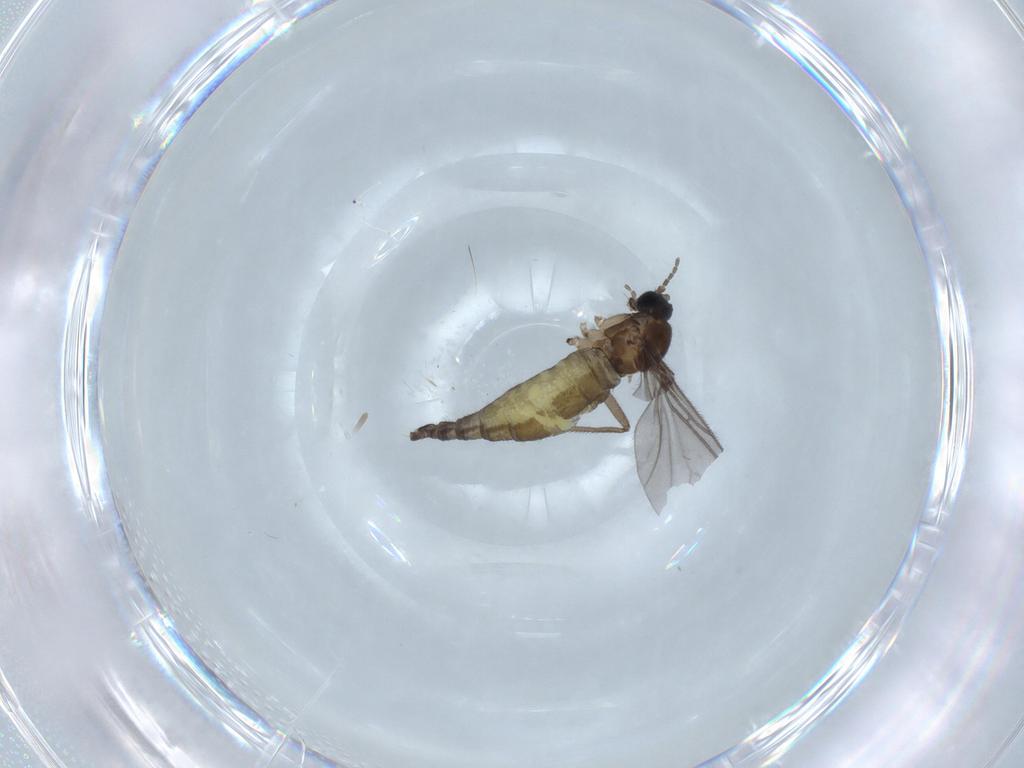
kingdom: Animalia
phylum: Arthropoda
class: Insecta
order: Diptera
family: Sciaridae
